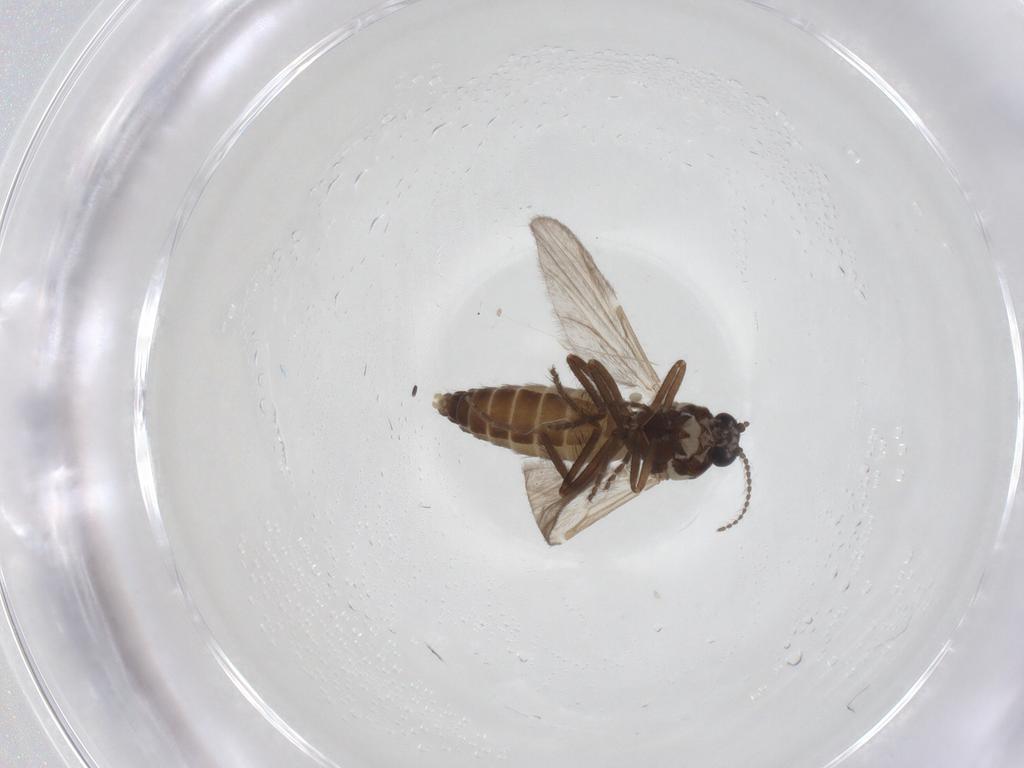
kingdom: Animalia
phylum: Arthropoda
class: Insecta
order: Diptera
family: Ceratopogonidae
